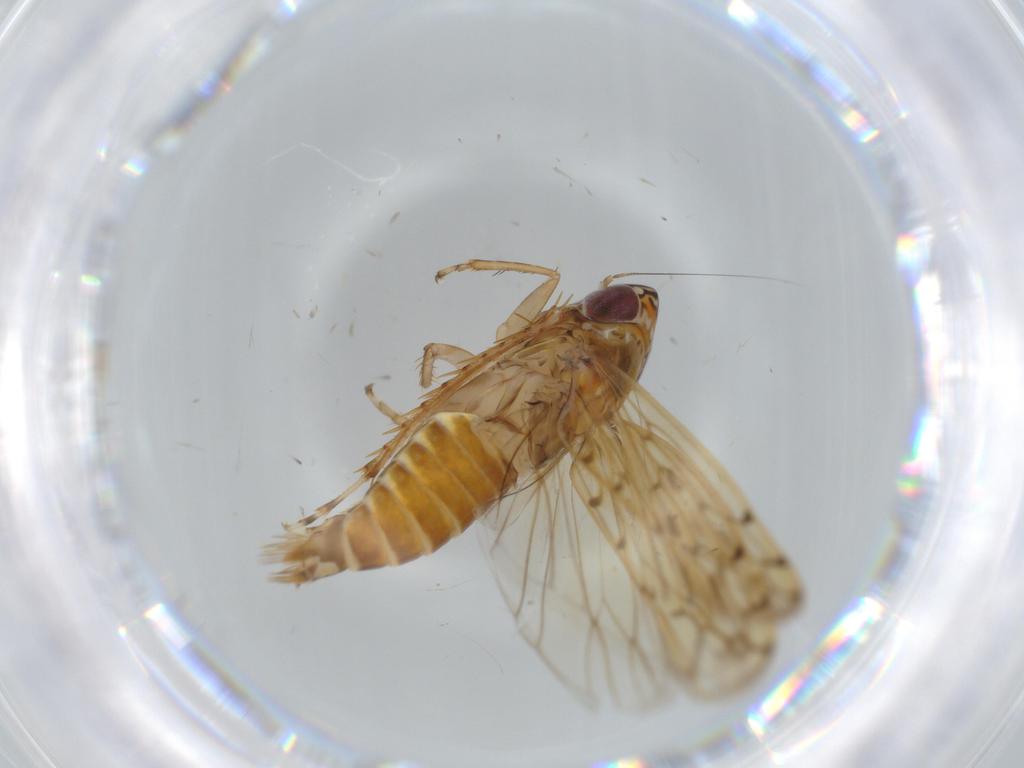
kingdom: Animalia
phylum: Arthropoda
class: Insecta
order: Hemiptera
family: Cicadellidae
